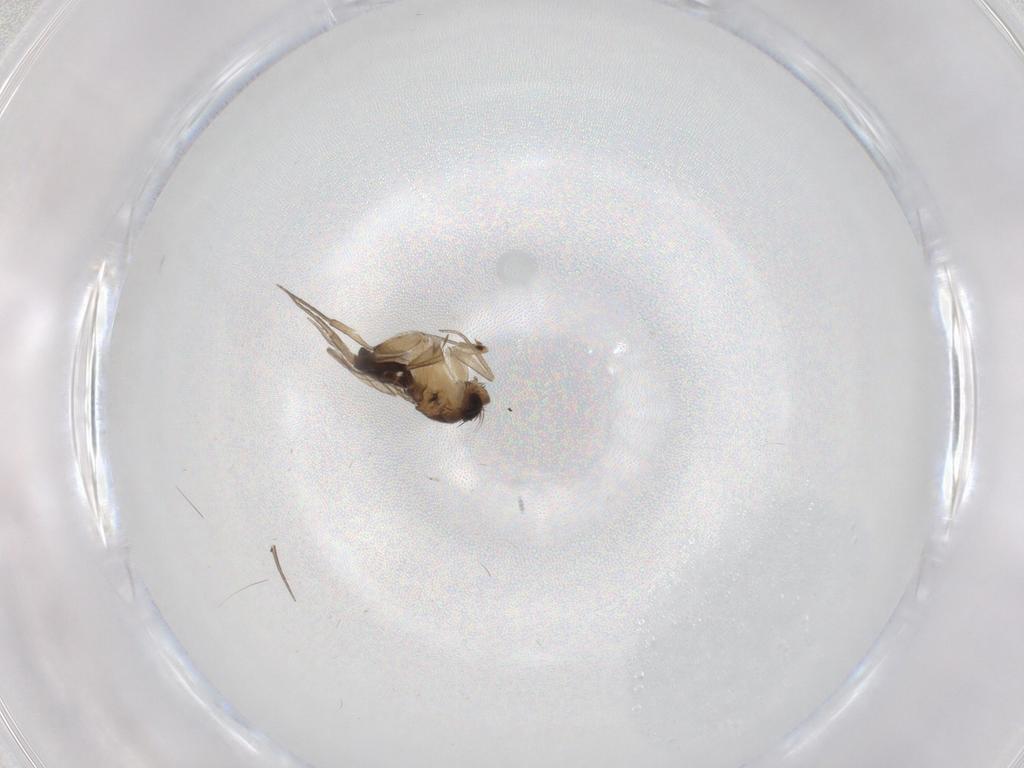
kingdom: Animalia
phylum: Arthropoda
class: Insecta
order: Diptera
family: Phoridae
